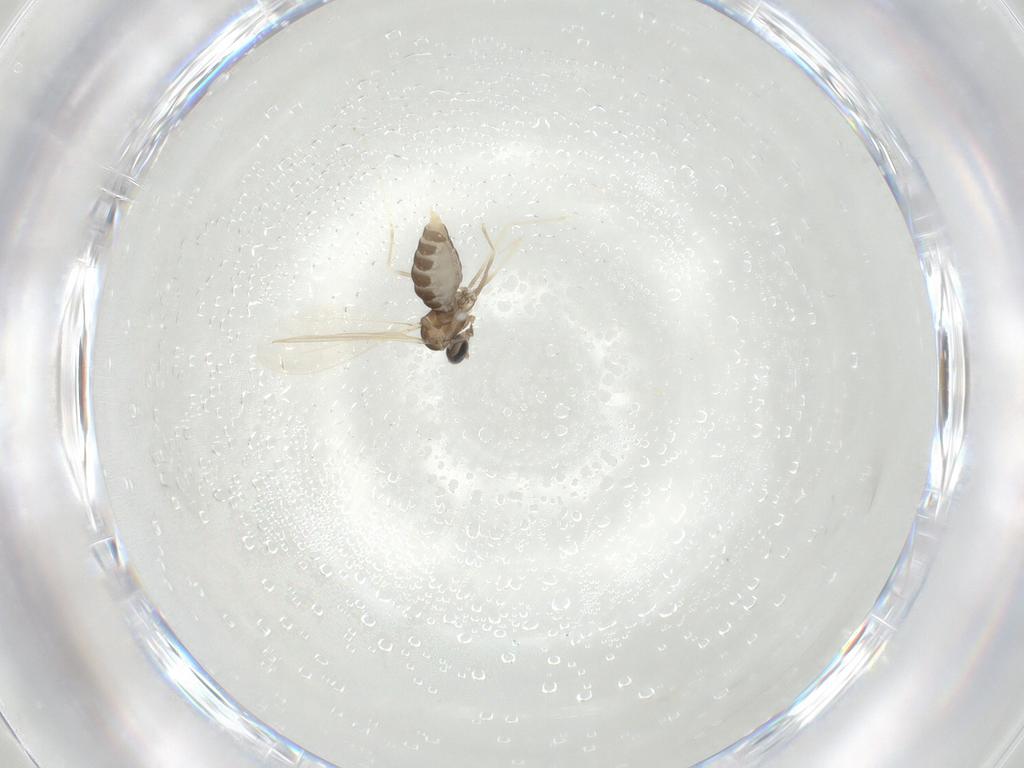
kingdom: Animalia
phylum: Arthropoda
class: Insecta
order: Diptera
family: Cecidomyiidae
